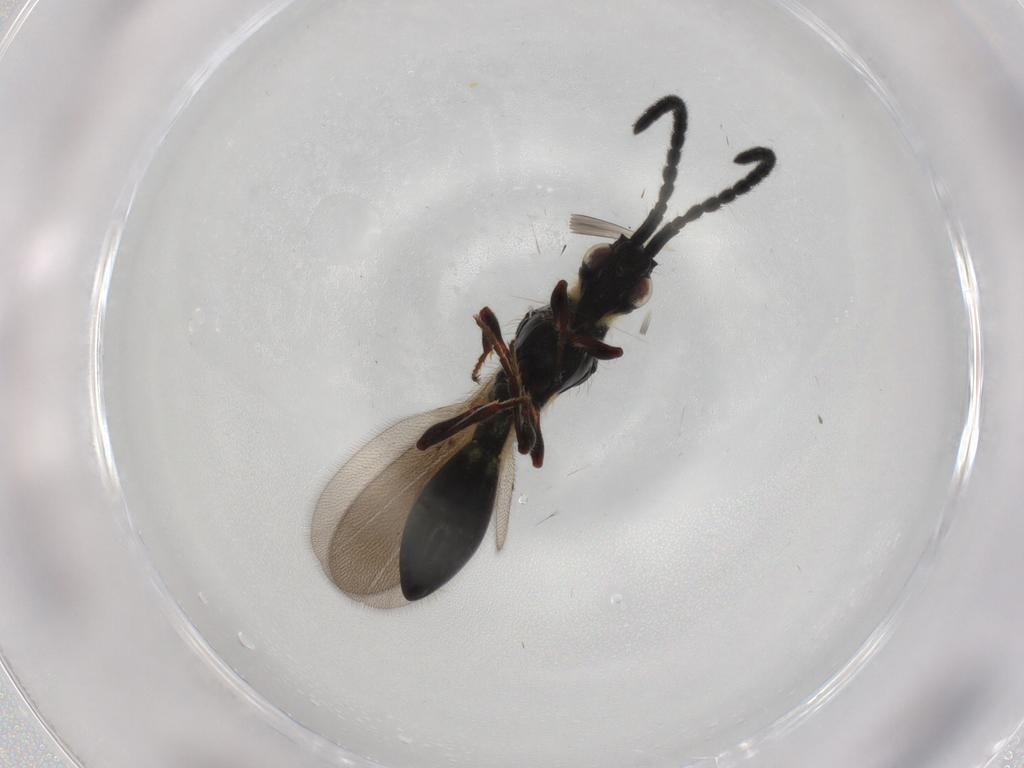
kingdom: Animalia
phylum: Arthropoda
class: Insecta
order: Hymenoptera
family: Diapriidae
